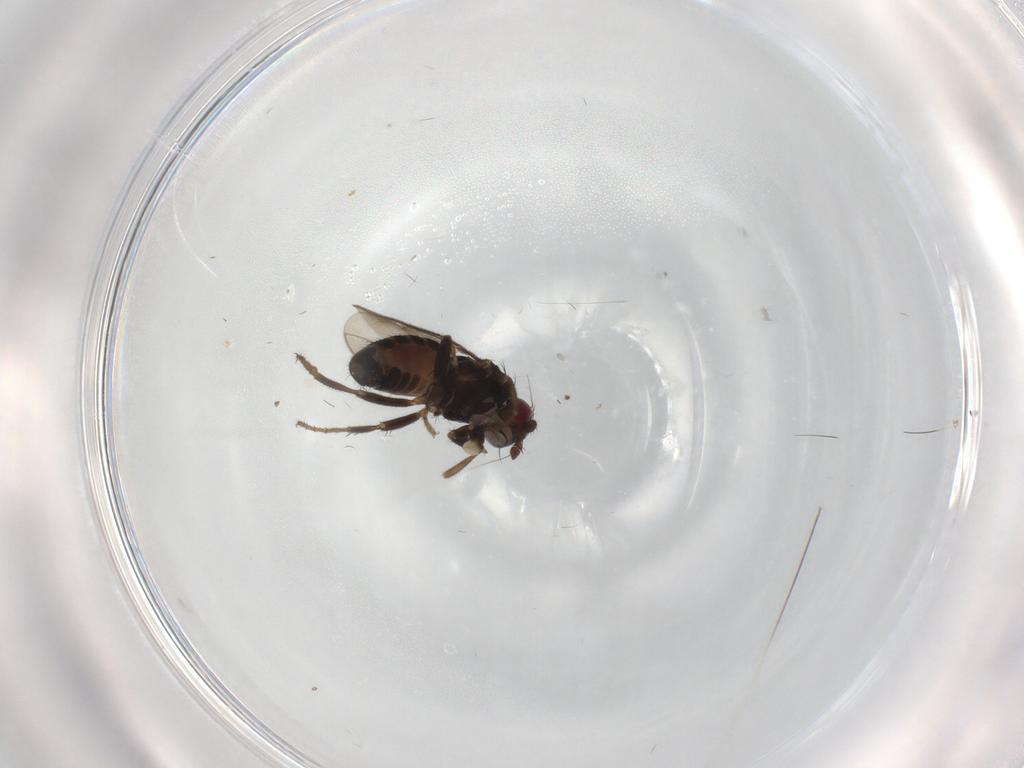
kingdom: Animalia
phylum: Arthropoda
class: Insecta
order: Diptera
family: Sphaeroceridae
